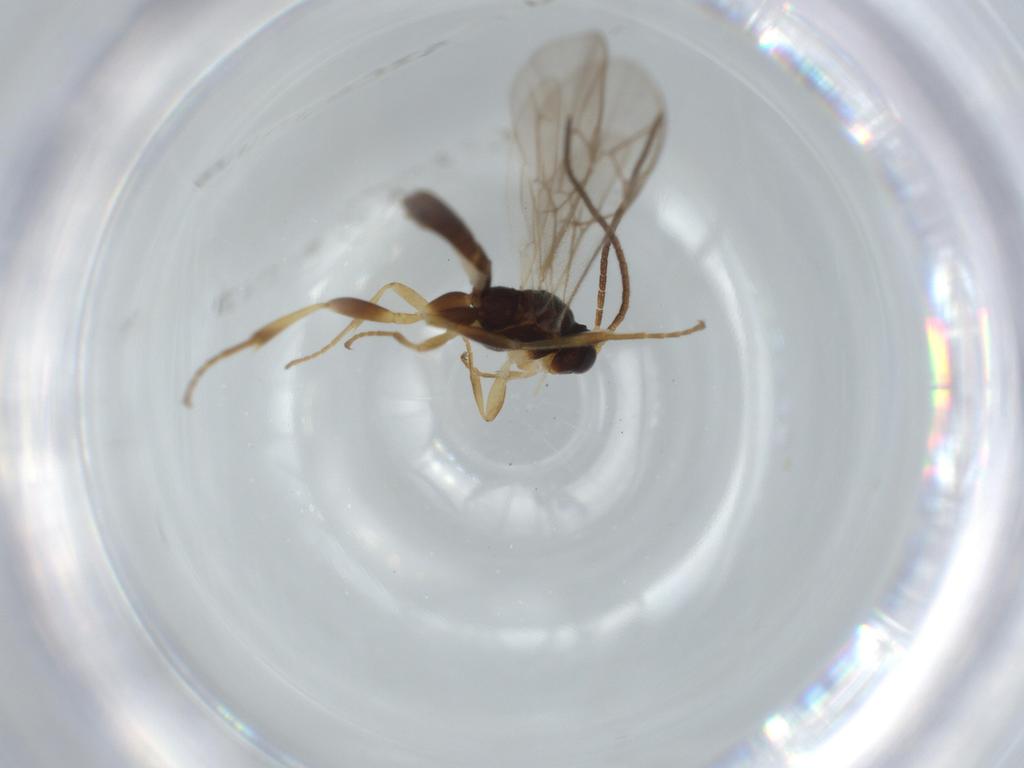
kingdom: Animalia
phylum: Arthropoda
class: Insecta
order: Hymenoptera
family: Ichneumonidae
